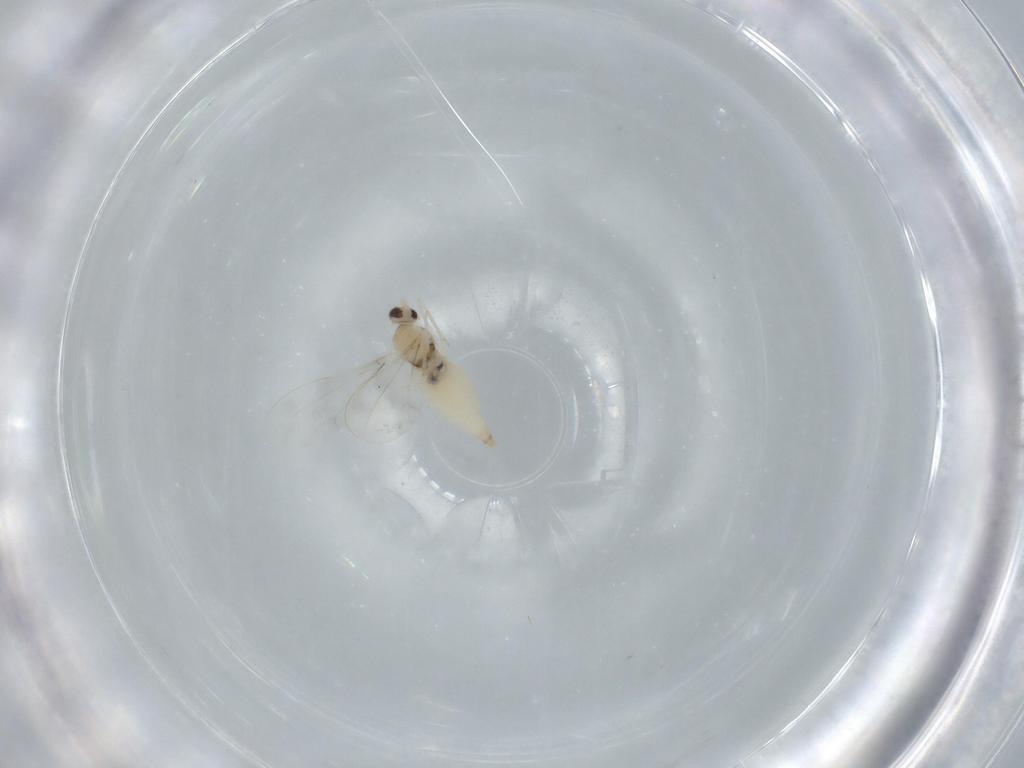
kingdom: Animalia
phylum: Arthropoda
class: Insecta
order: Diptera
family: Cecidomyiidae
